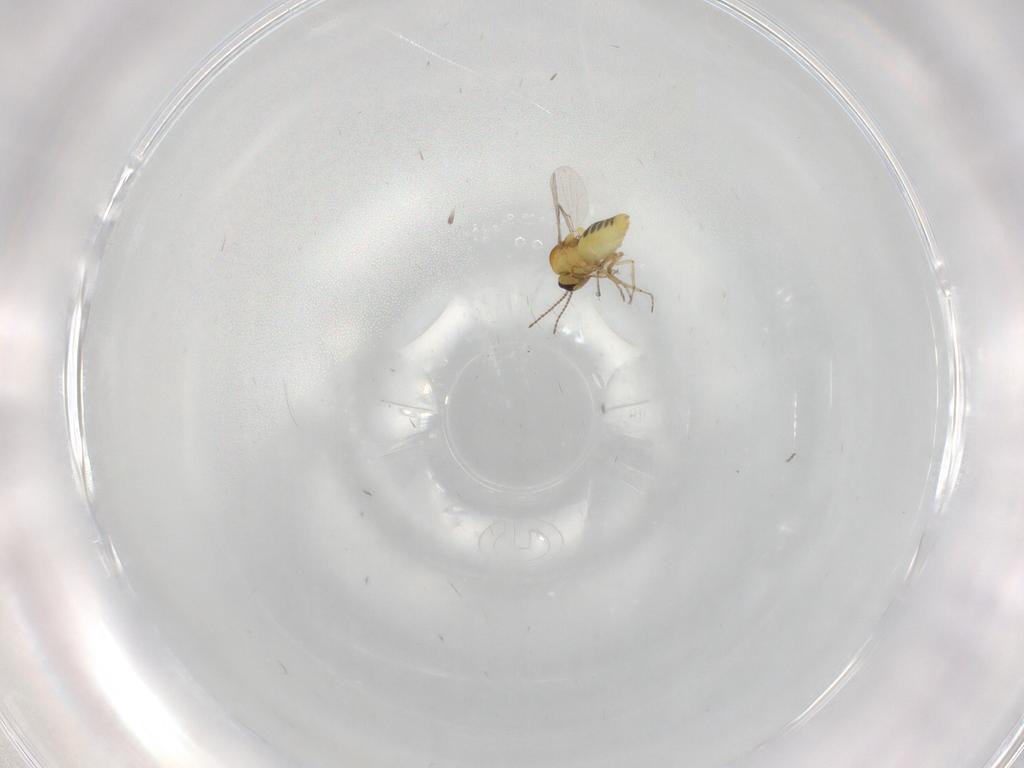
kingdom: Animalia
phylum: Arthropoda
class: Insecta
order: Diptera
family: Ceratopogonidae
